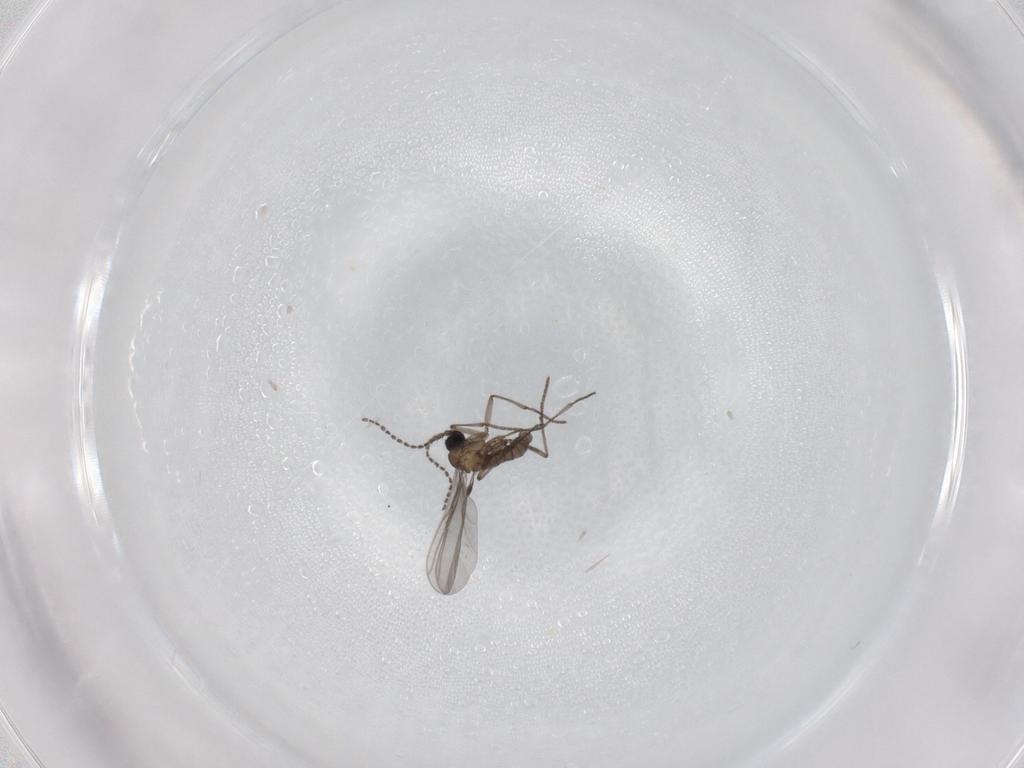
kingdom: Animalia
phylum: Arthropoda
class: Insecta
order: Diptera
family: Sciaridae
